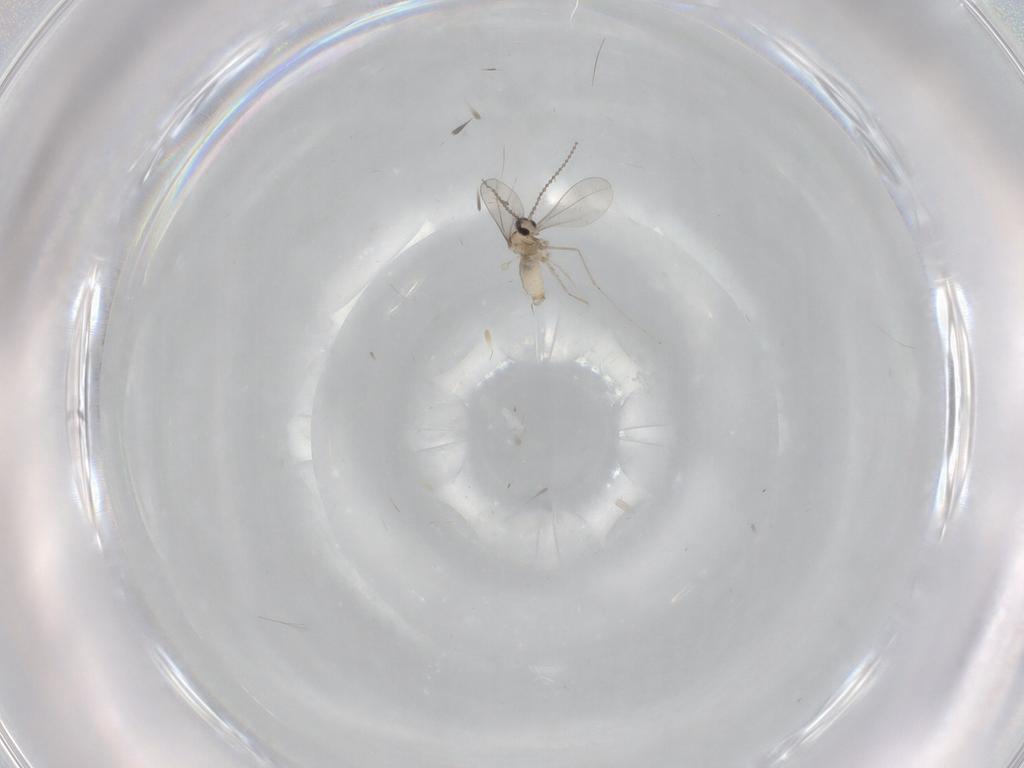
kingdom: Animalia
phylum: Arthropoda
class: Insecta
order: Diptera
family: Cecidomyiidae
